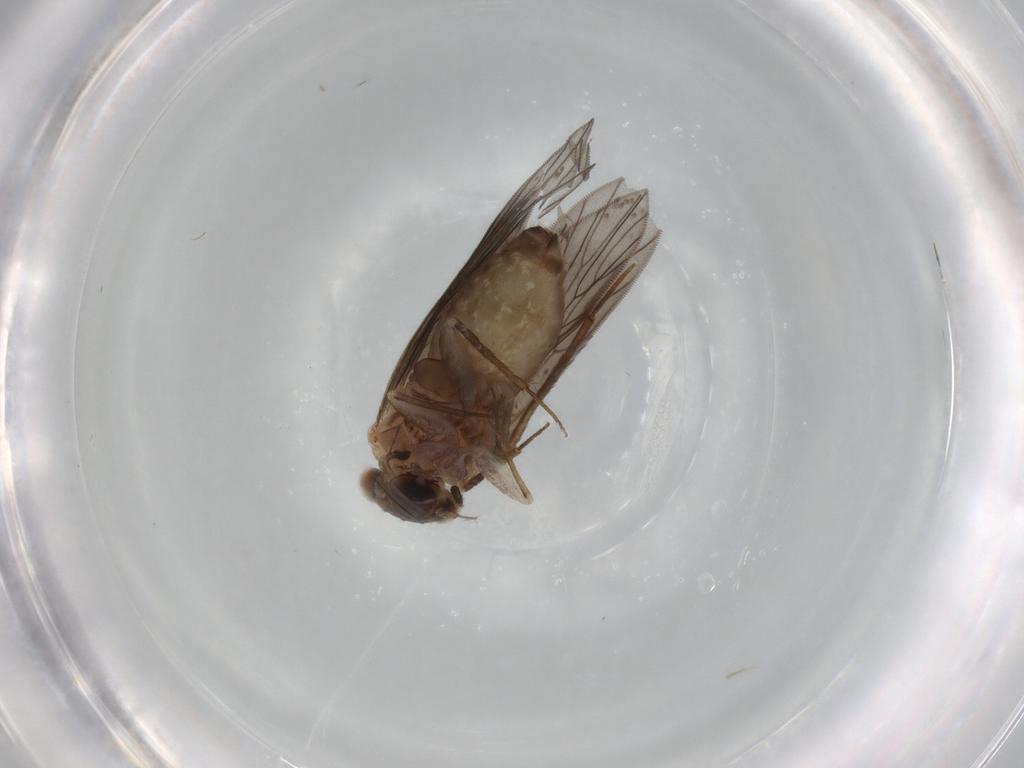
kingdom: Animalia
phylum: Arthropoda
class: Insecta
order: Psocodea
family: Lepidopsocidae
